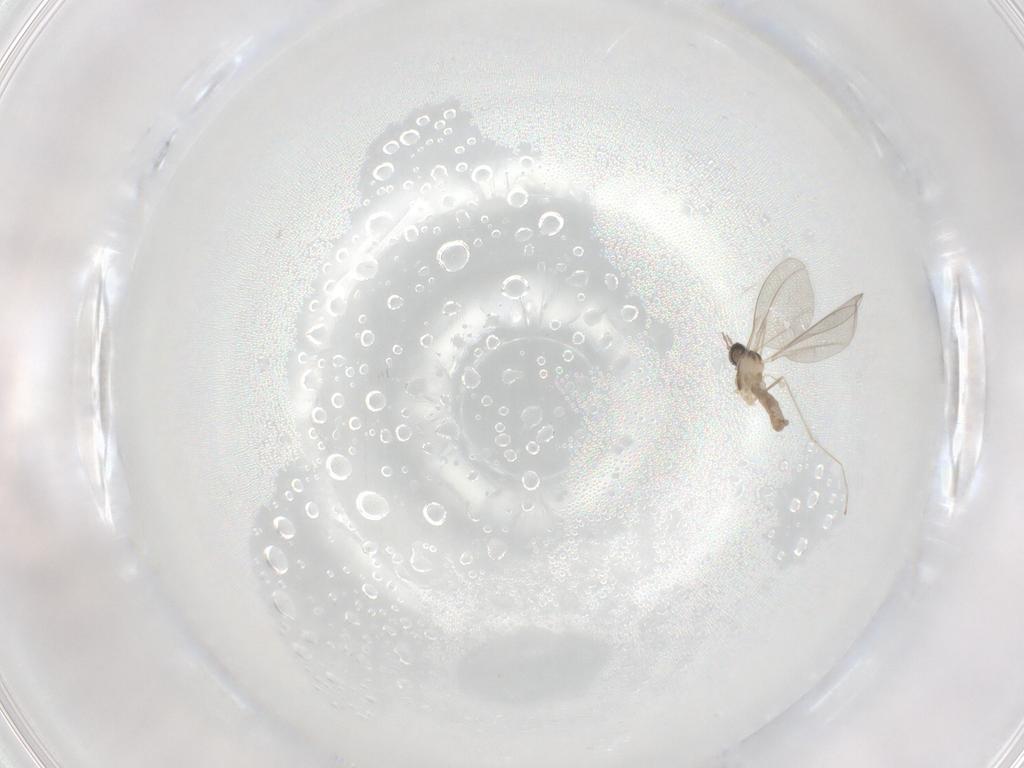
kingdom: Animalia
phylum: Arthropoda
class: Insecta
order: Diptera
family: Cecidomyiidae
